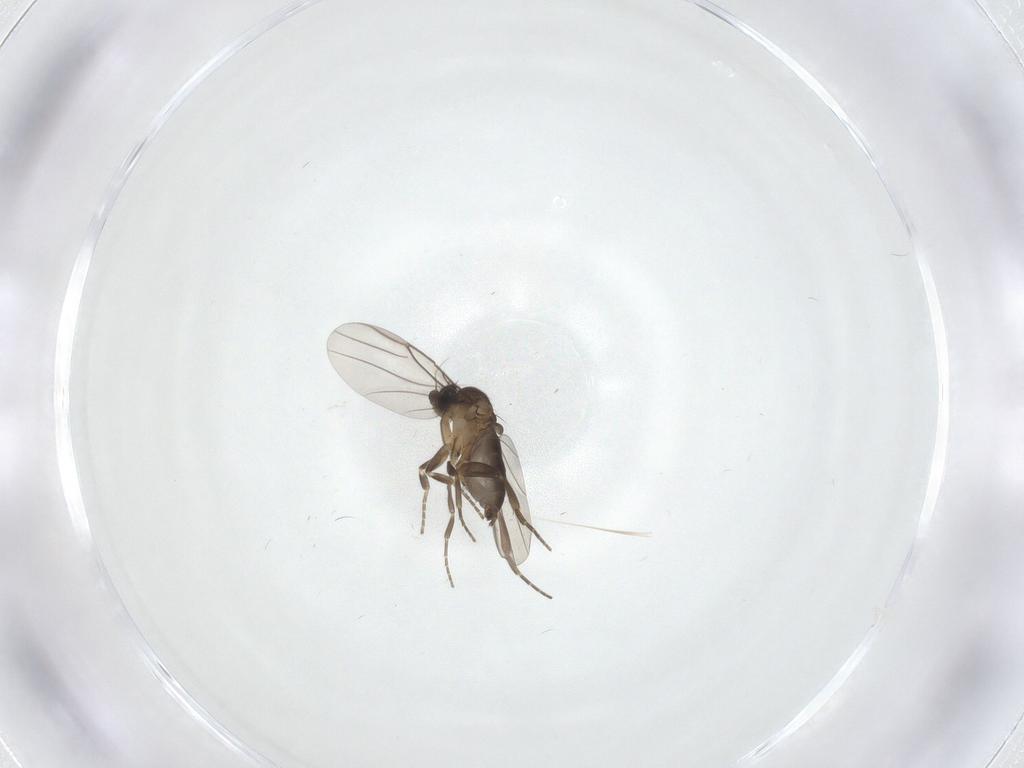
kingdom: Animalia
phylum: Arthropoda
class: Insecta
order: Diptera
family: Phoridae
